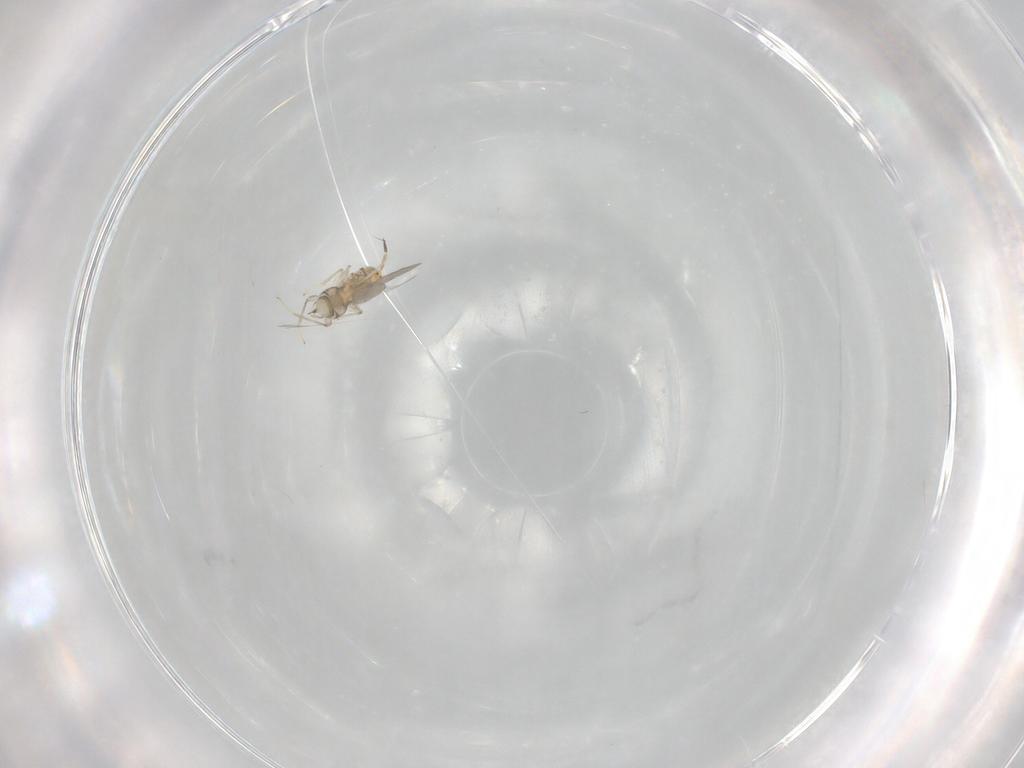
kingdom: Animalia
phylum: Arthropoda
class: Insecta
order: Hymenoptera
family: Aphelinidae
